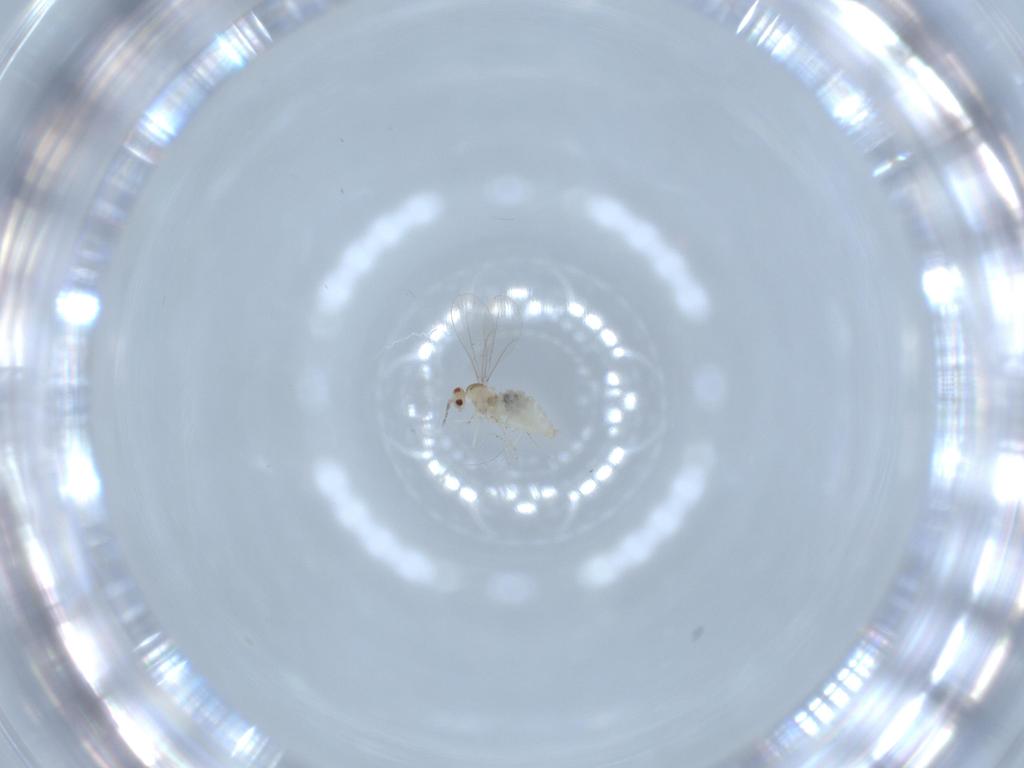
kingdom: Animalia
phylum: Arthropoda
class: Insecta
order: Diptera
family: Cecidomyiidae
